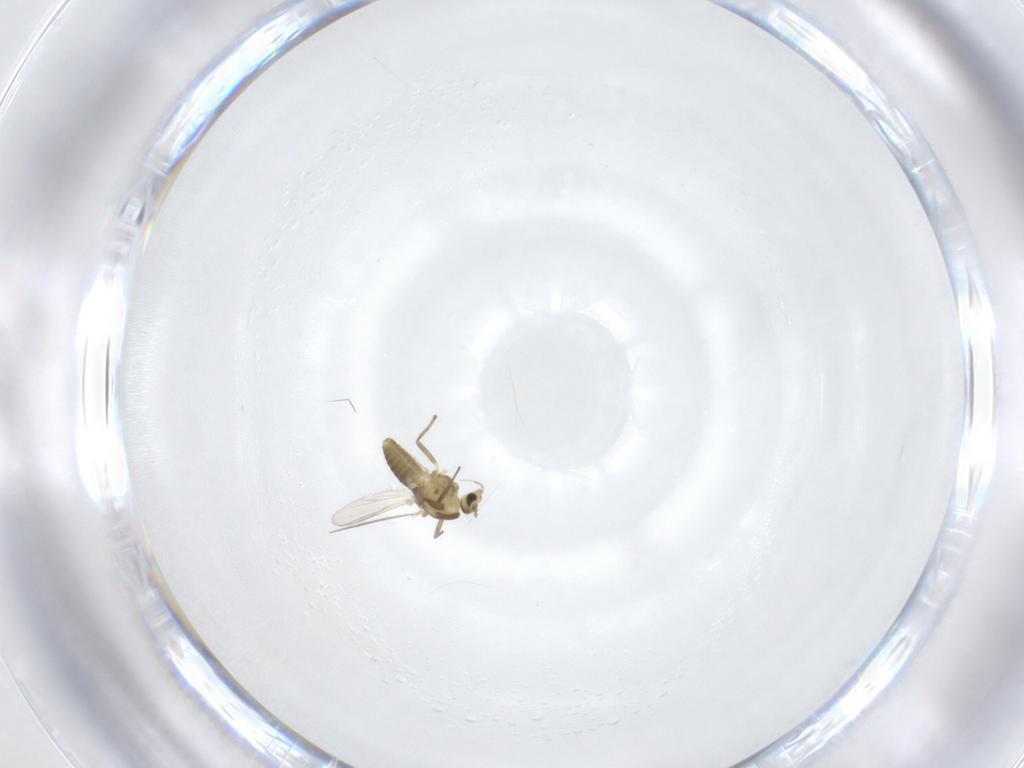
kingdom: Animalia
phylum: Arthropoda
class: Insecta
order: Diptera
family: Chironomidae
